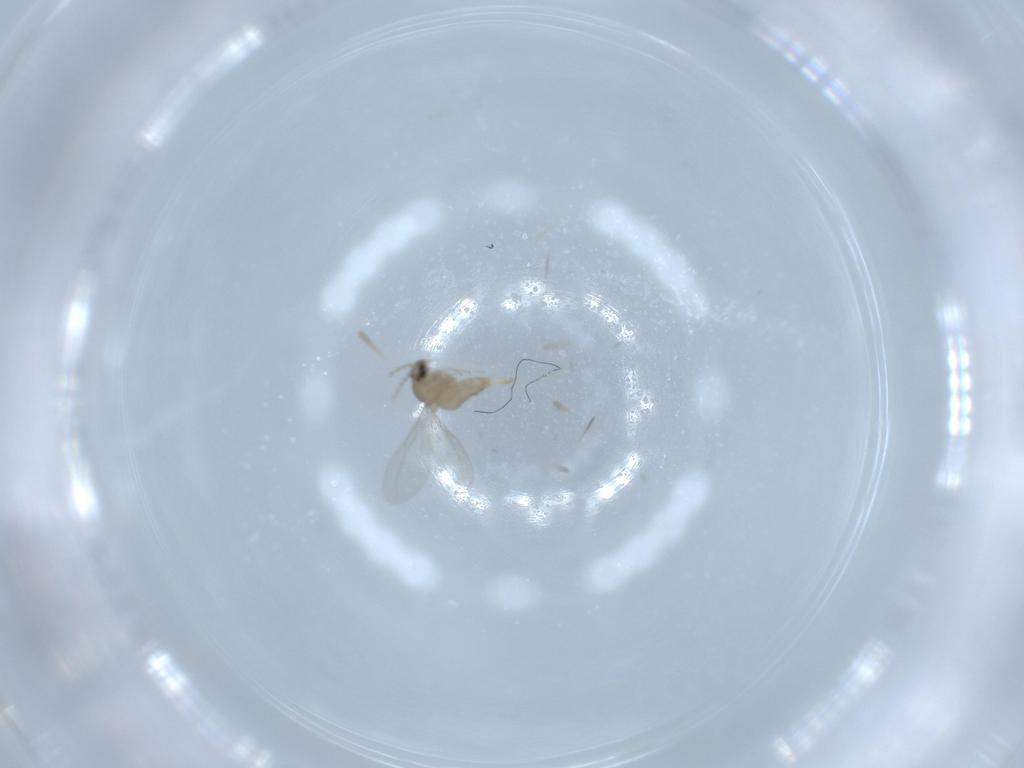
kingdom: Animalia
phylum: Arthropoda
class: Insecta
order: Diptera
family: Cecidomyiidae
